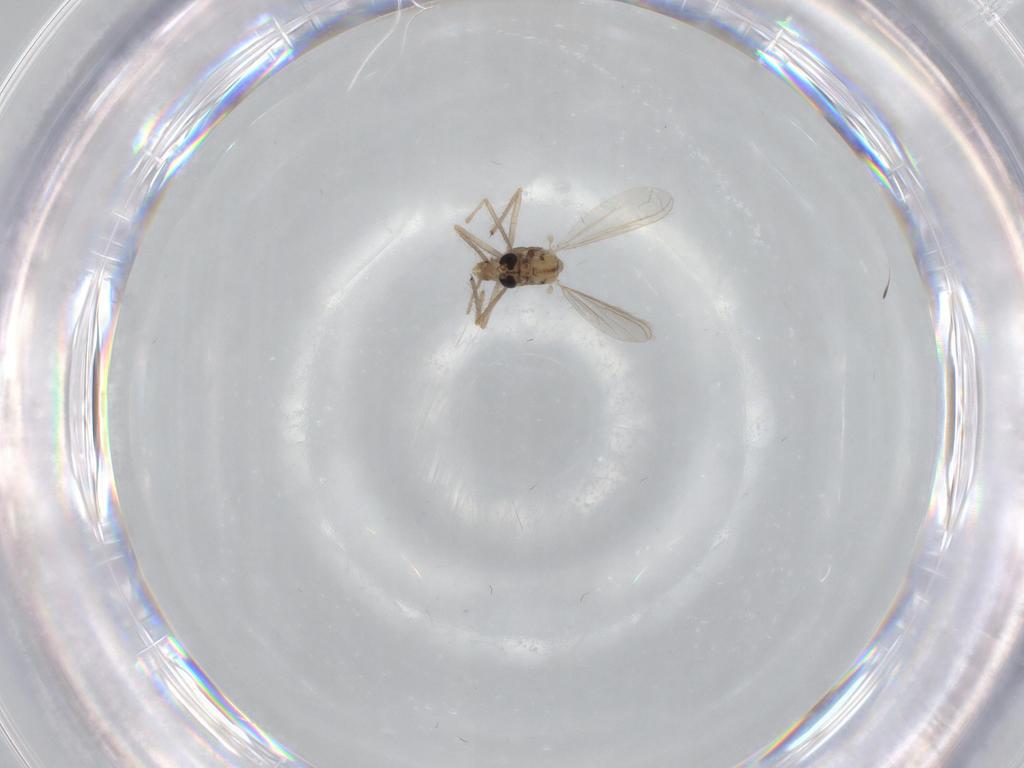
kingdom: Animalia
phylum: Arthropoda
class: Insecta
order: Diptera
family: Chironomidae
